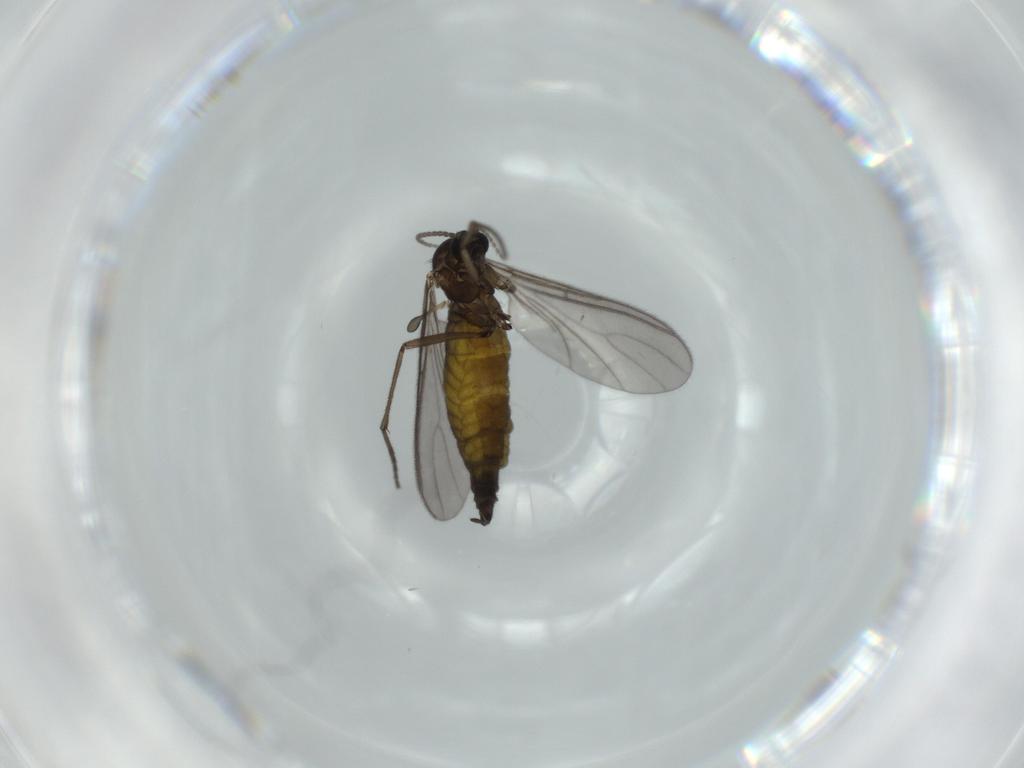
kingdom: Animalia
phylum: Arthropoda
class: Insecta
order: Diptera
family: Sciaridae
